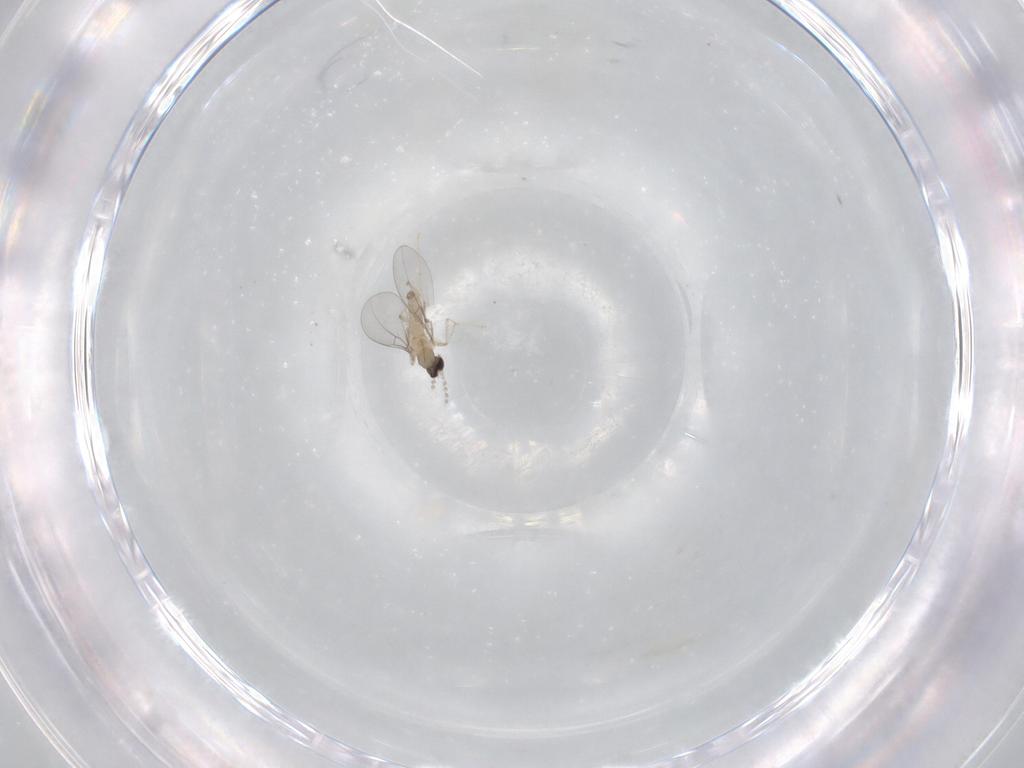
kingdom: Animalia
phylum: Arthropoda
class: Insecta
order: Diptera
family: Cecidomyiidae
